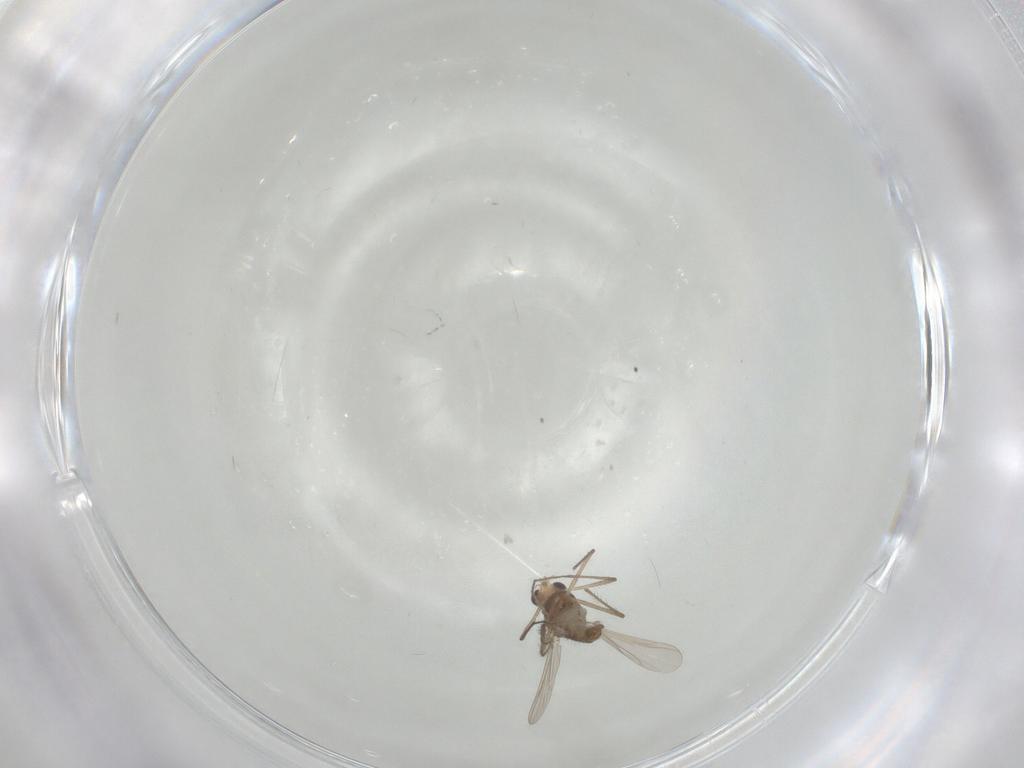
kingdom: Animalia
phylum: Arthropoda
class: Insecta
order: Diptera
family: Chironomidae
